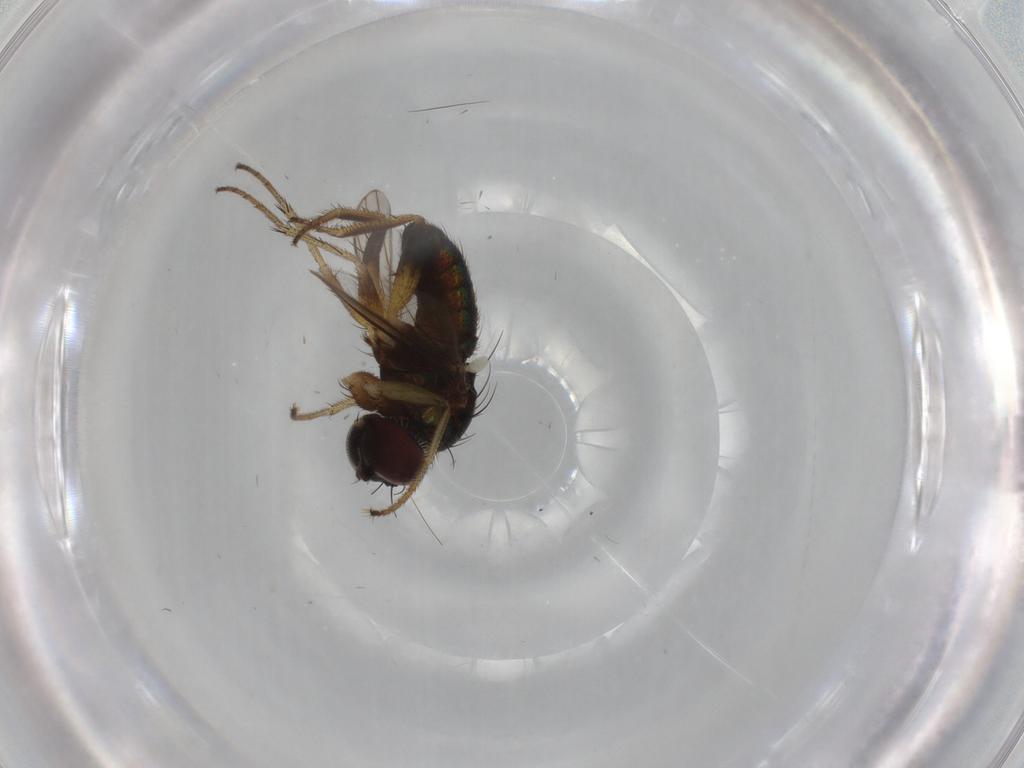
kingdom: Animalia
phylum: Arthropoda
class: Insecta
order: Diptera
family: Dolichopodidae
